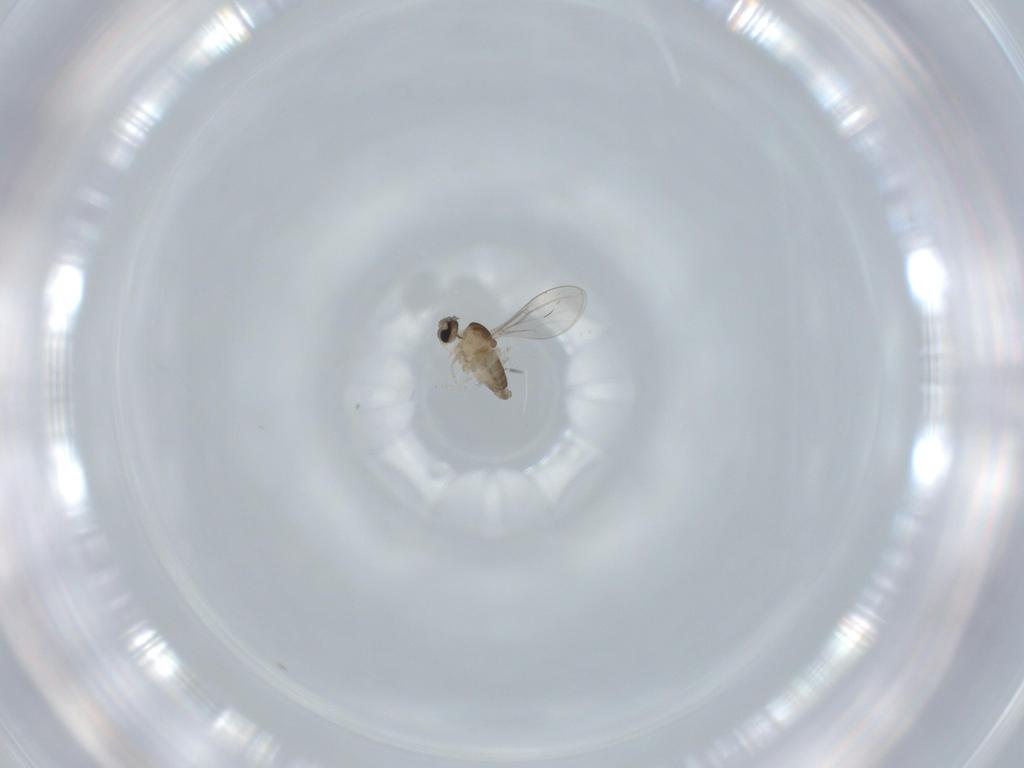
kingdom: Animalia
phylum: Arthropoda
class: Insecta
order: Diptera
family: Cecidomyiidae
